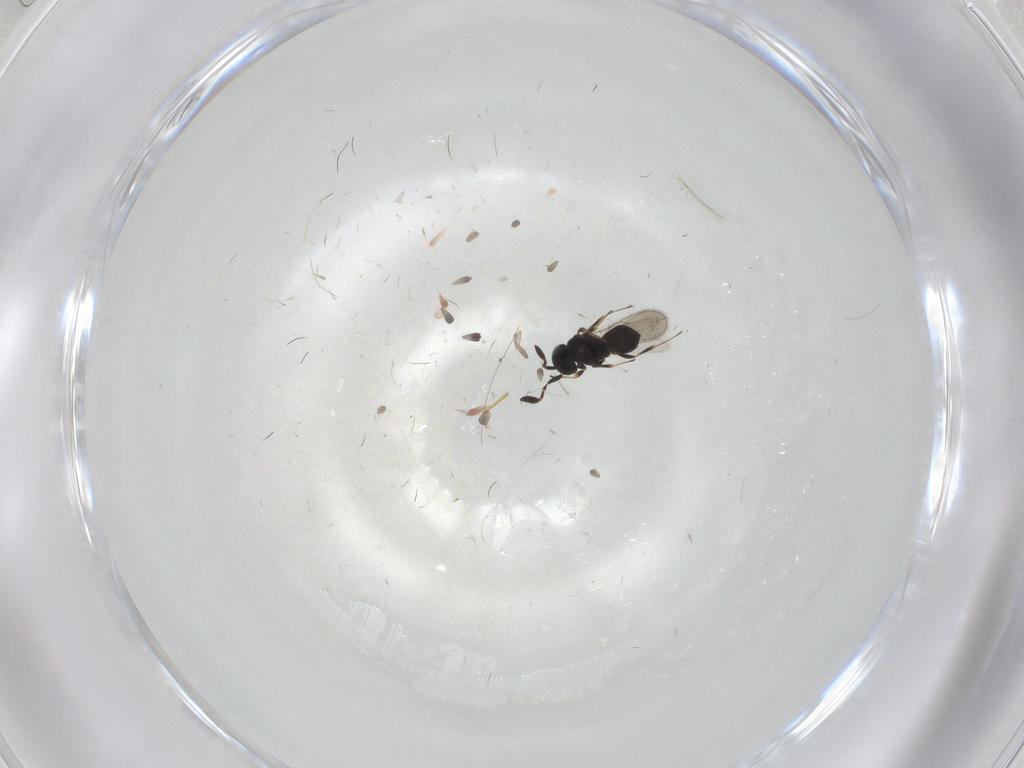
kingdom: Animalia
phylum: Arthropoda
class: Insecta
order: Hymenoptera
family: Scelionidae
